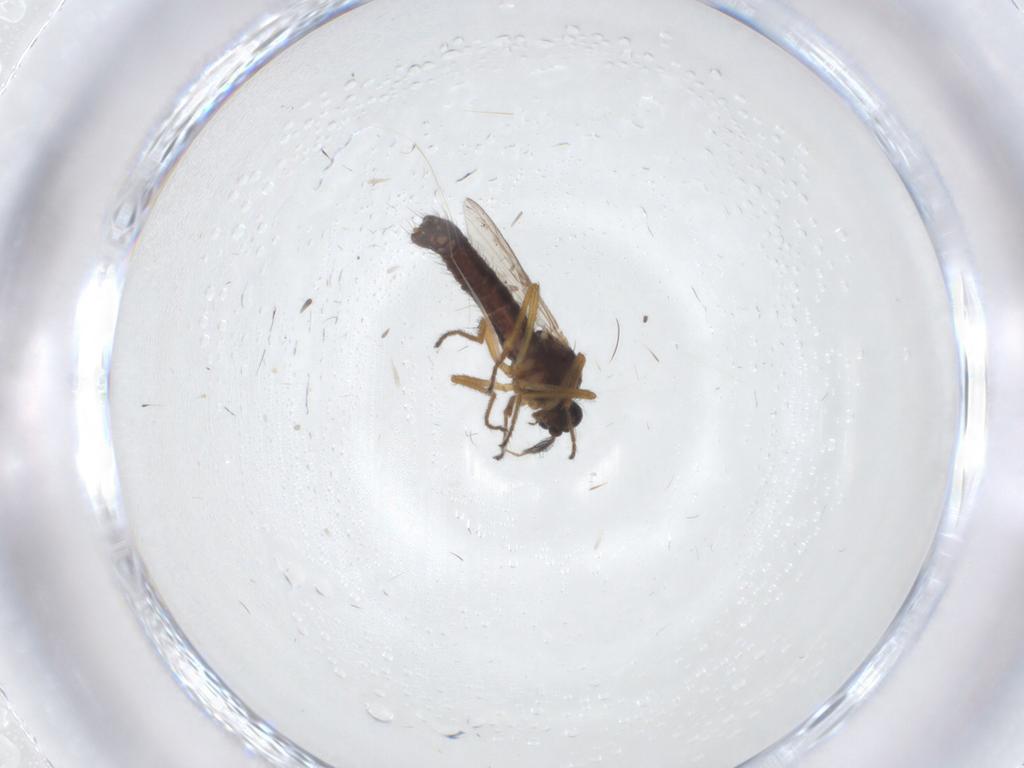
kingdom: Animalia
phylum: Arthropoda
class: Insecta
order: Diptera
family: Ceratopogonidae
